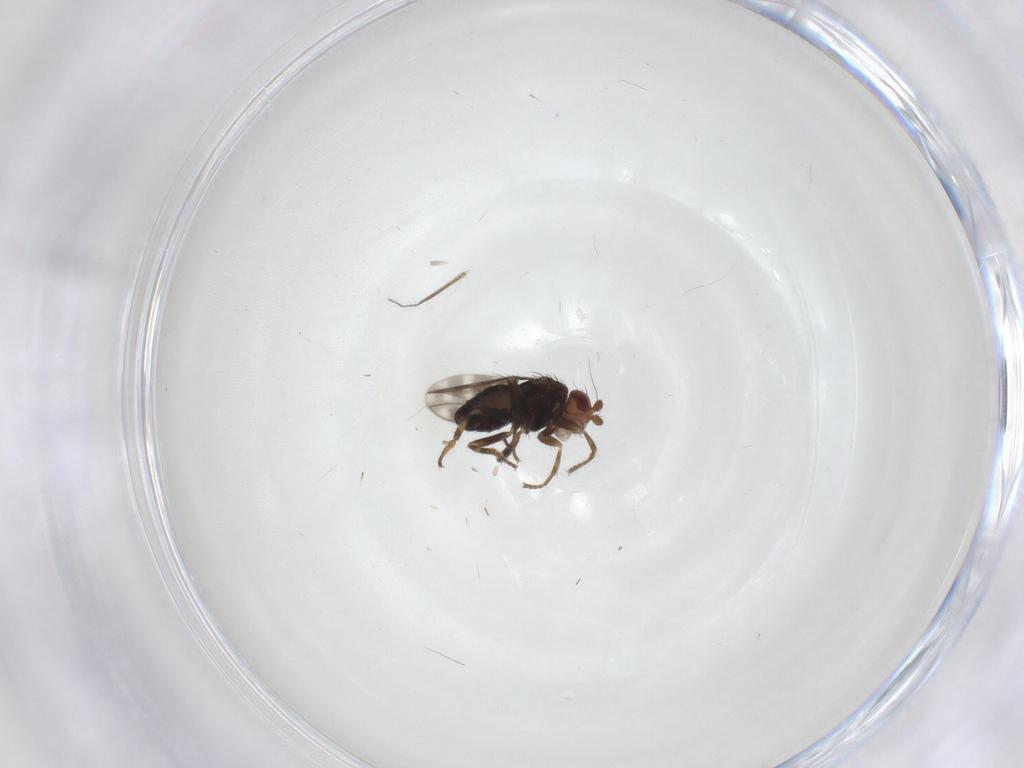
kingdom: Animalia
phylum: Arthropoda
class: Insecta
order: Diptera
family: Sphaeroceridae
